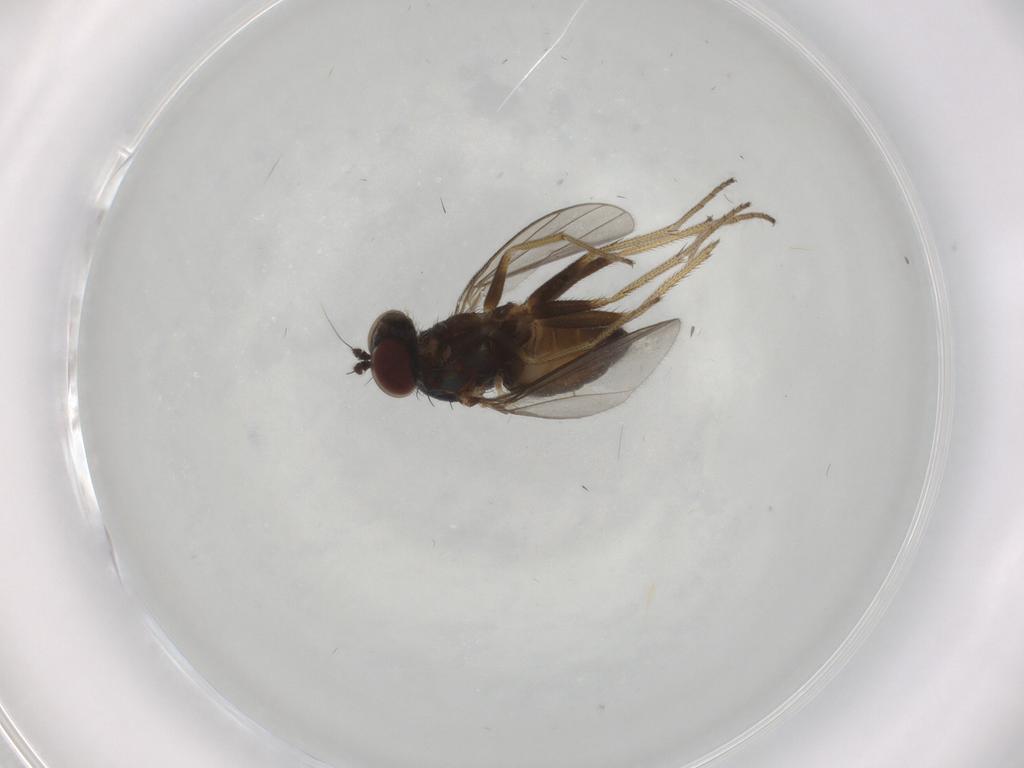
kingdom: Animalia
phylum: Arthropoda
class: Insecta
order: Diptera
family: Dolichopodidae
